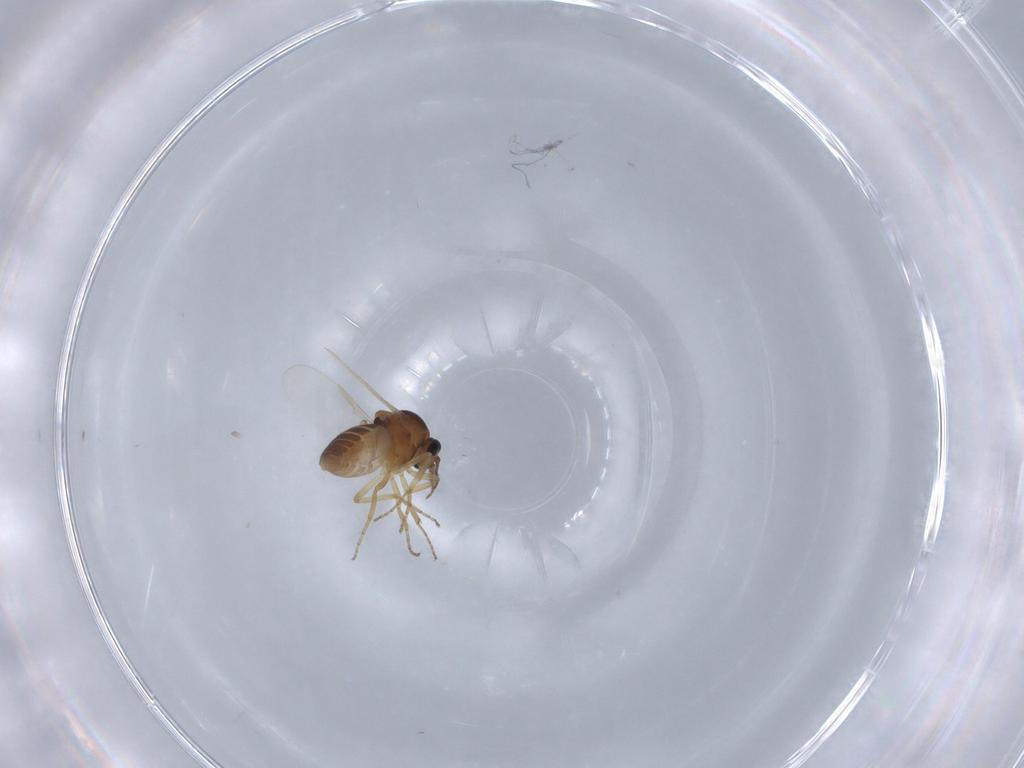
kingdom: Animalia
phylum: Arthropoda
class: Insecta
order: Diptera
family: Ceratopogonidae
